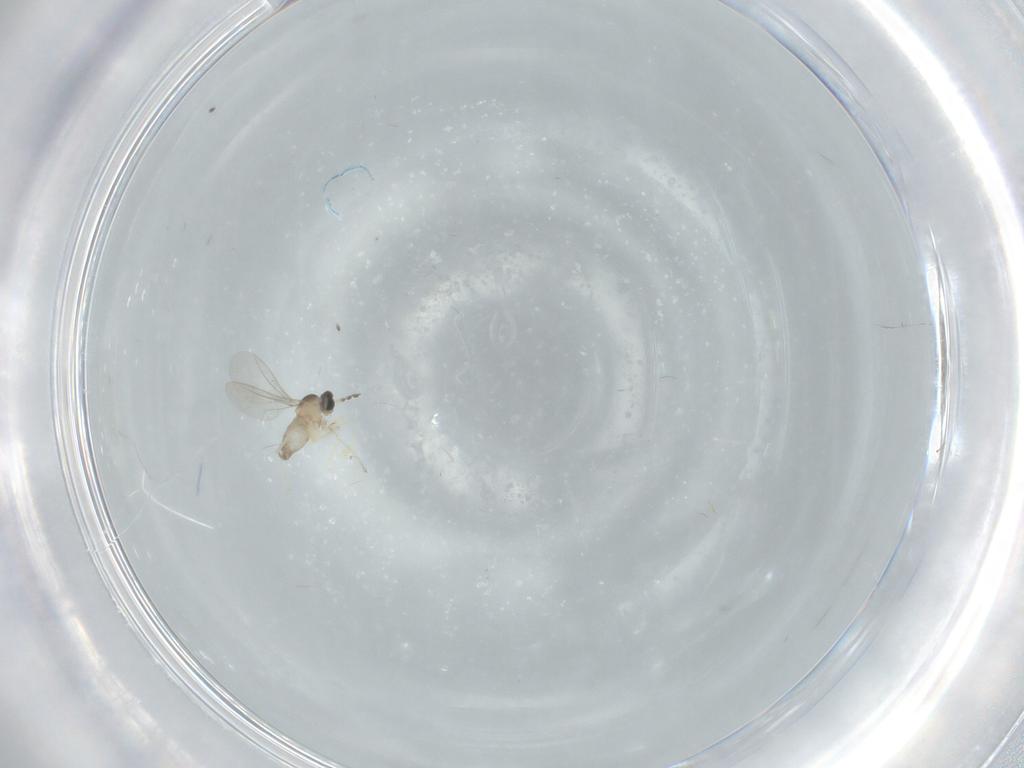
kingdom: Animalia
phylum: Arthropoda
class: Insecta
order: Diptera
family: Cecidomyiidae
